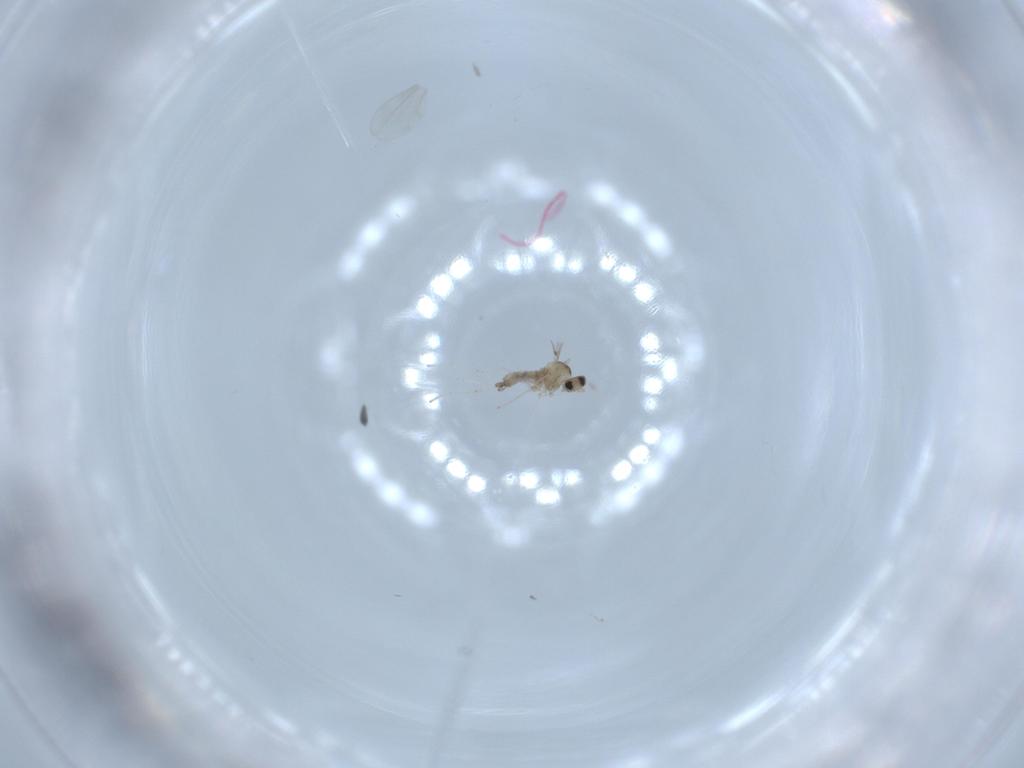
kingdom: Animalia
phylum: Arthropoda
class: Insecta
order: Diptera
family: Cecidomyiidae
